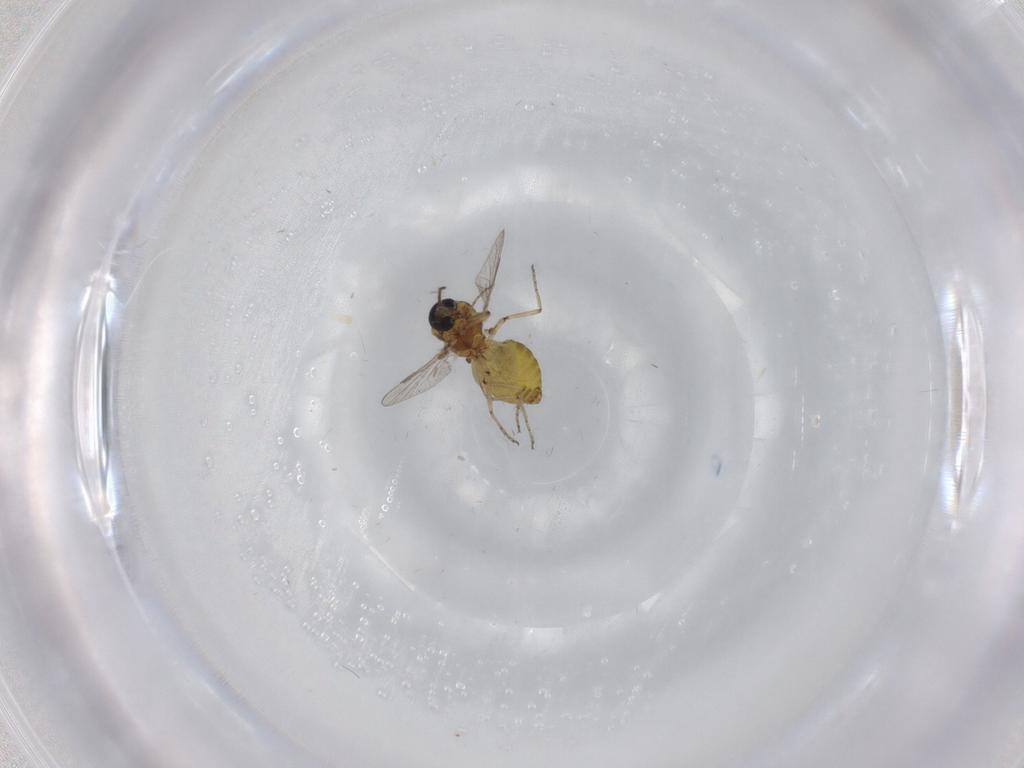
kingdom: Animalia
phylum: Arthropoda
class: Insecta
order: Diptera
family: Ceratopogonidae
